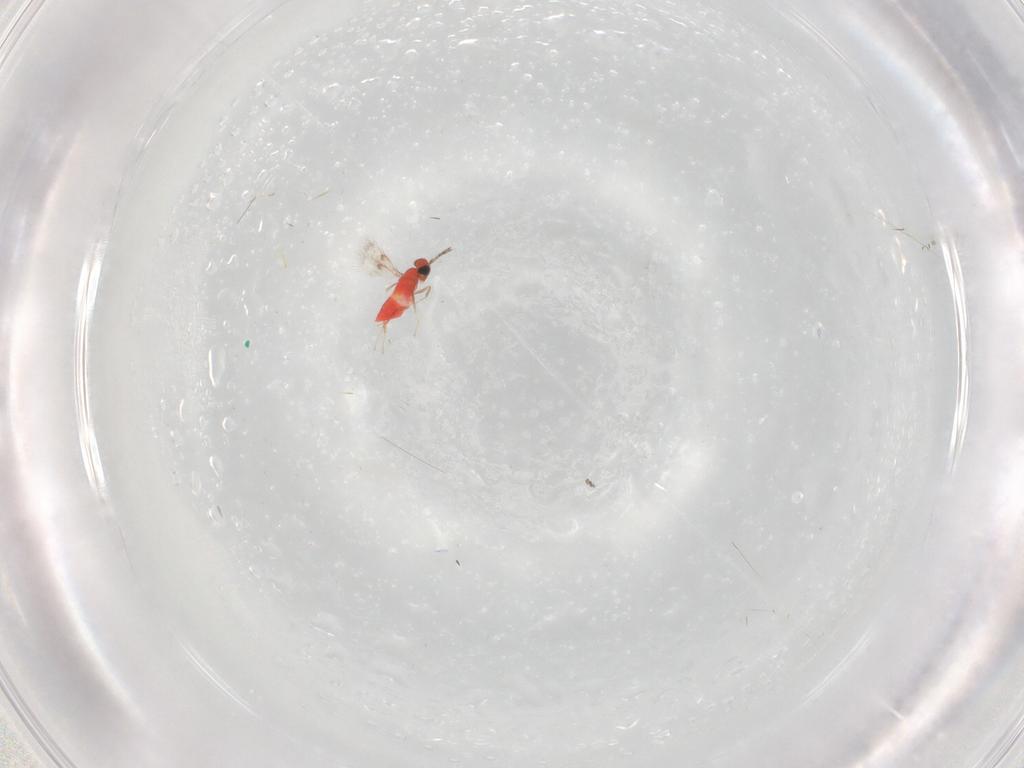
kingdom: Animalia
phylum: Arthropoda
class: Insecta
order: Hymenoptera
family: Trichogrammatidae
